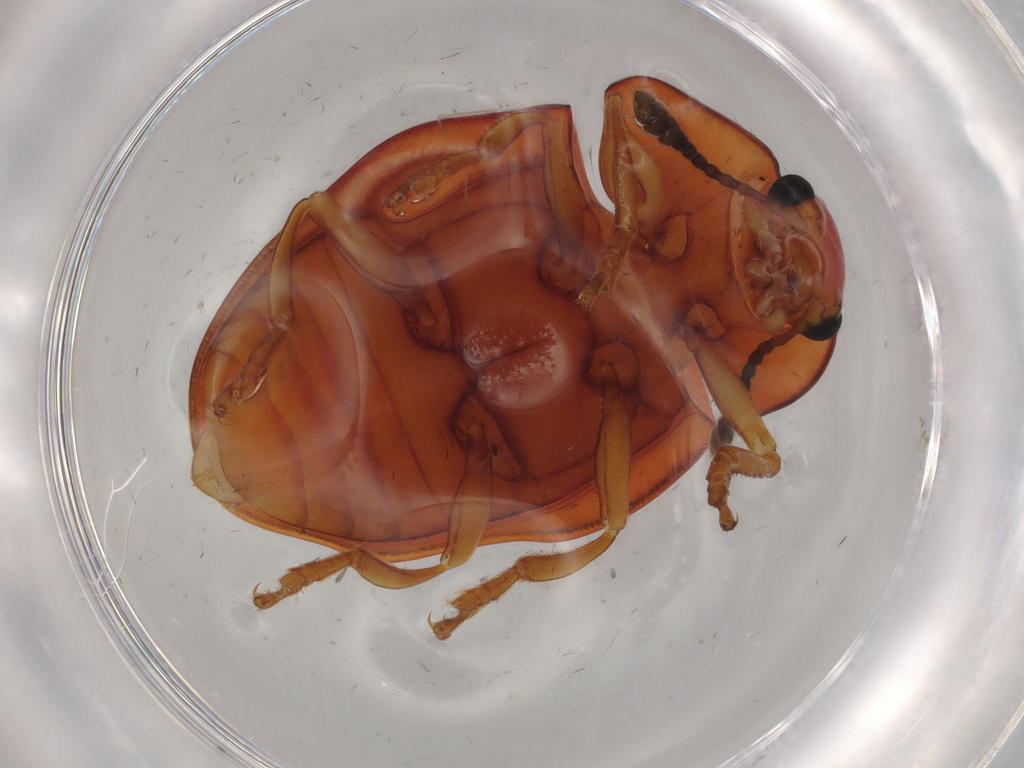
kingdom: Animalia
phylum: Arthropoda
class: Insecta
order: Coleoptera
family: Erotylidae
